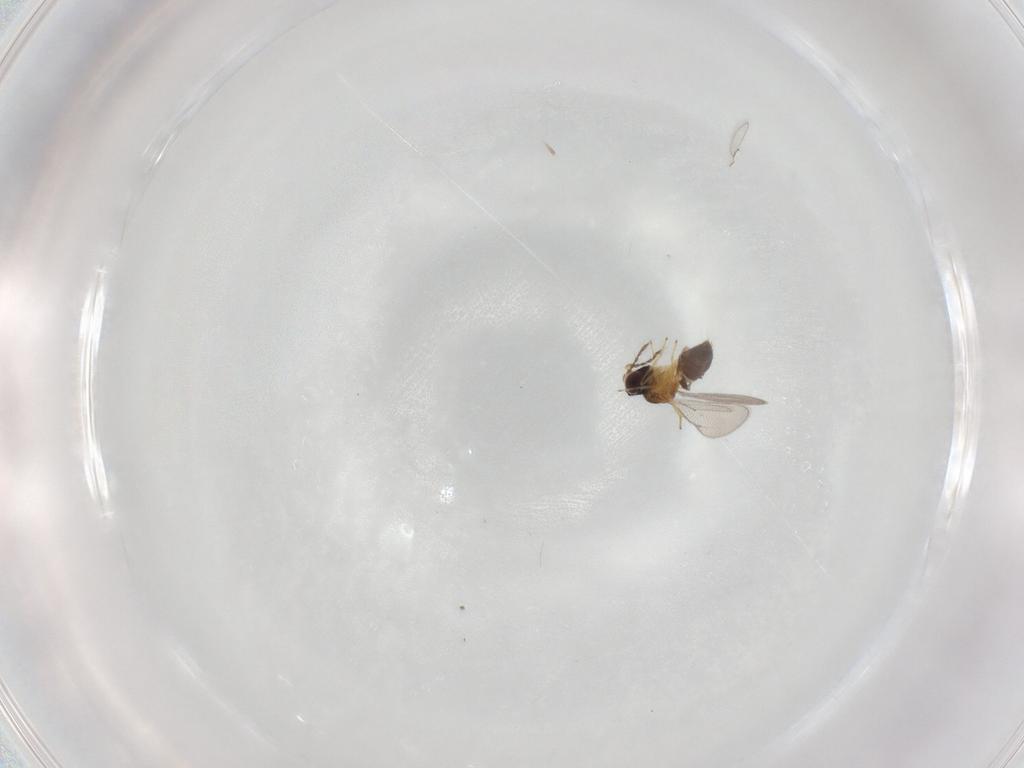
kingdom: Animalia
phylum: Arthropoda
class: Insecta
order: Hymenoptera
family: Eulophidae
